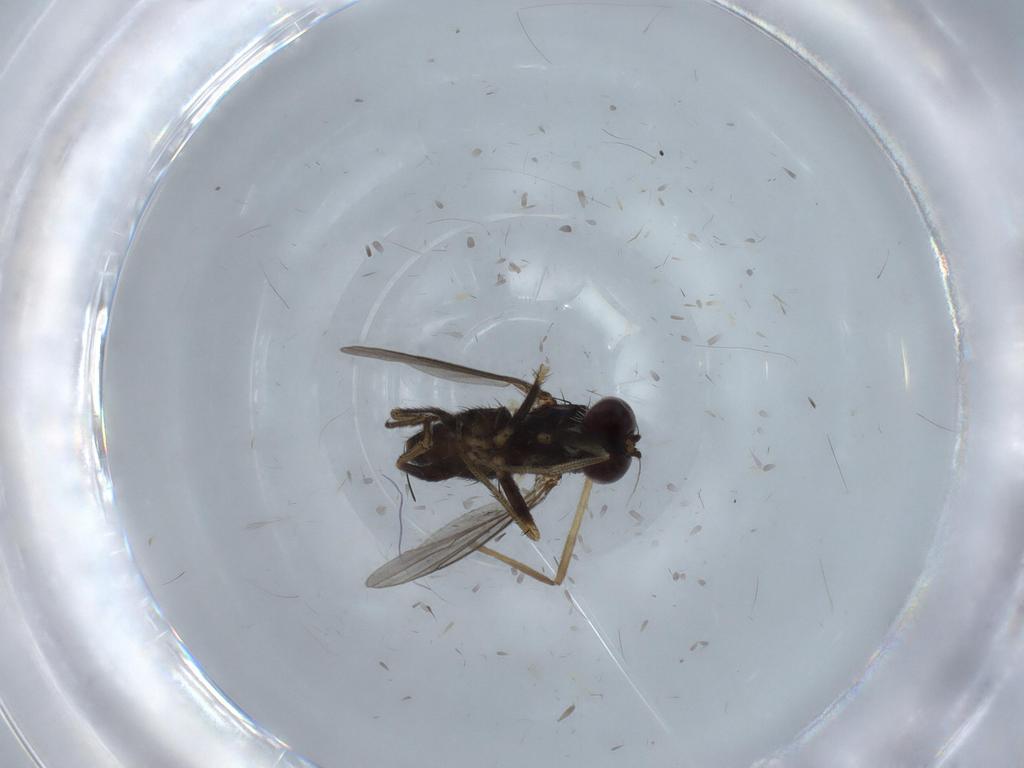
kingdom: Animalia
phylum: Arthropoda
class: Insecta
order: Diptera
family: Ceratopogonidae
